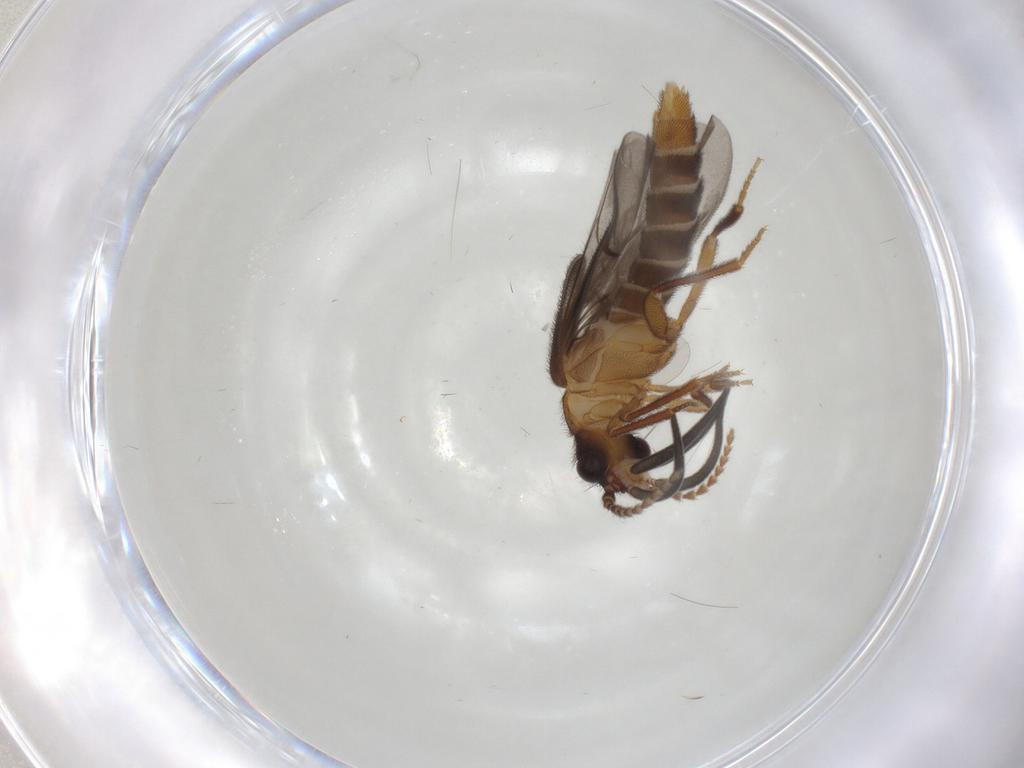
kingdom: Animalia
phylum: Arthropoda
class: Insecta
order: Coleoptera
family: Omethidae
